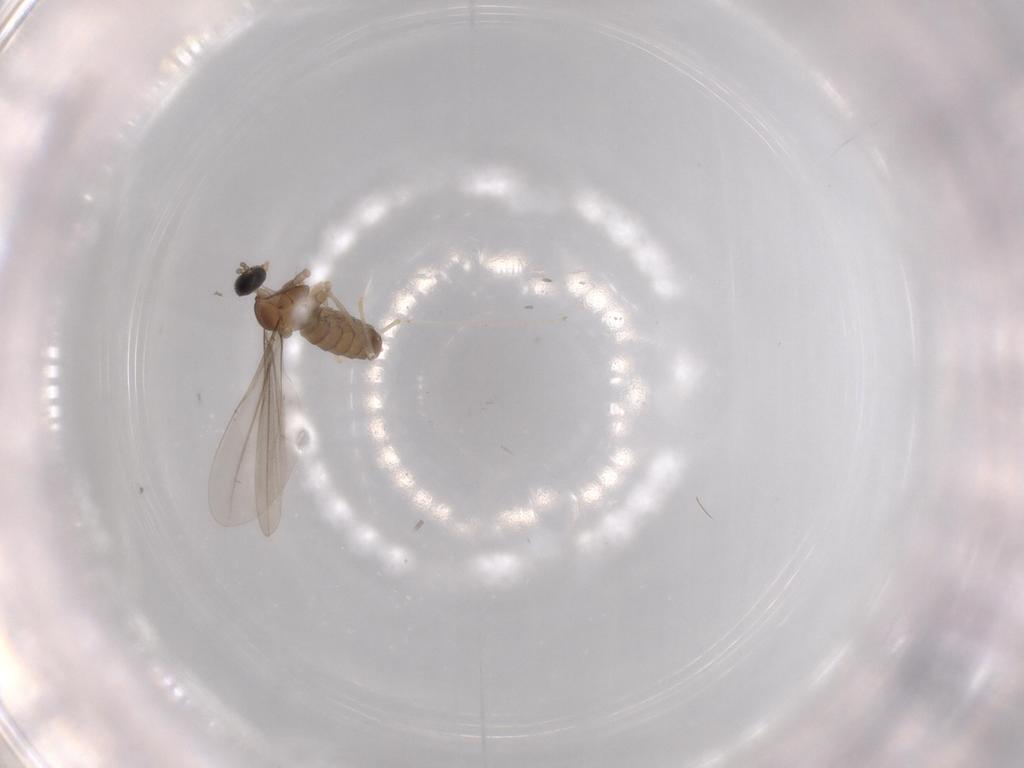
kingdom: Animalia
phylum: Arthropoda
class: Insecta
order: Diptera
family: Cecidomyiidae
